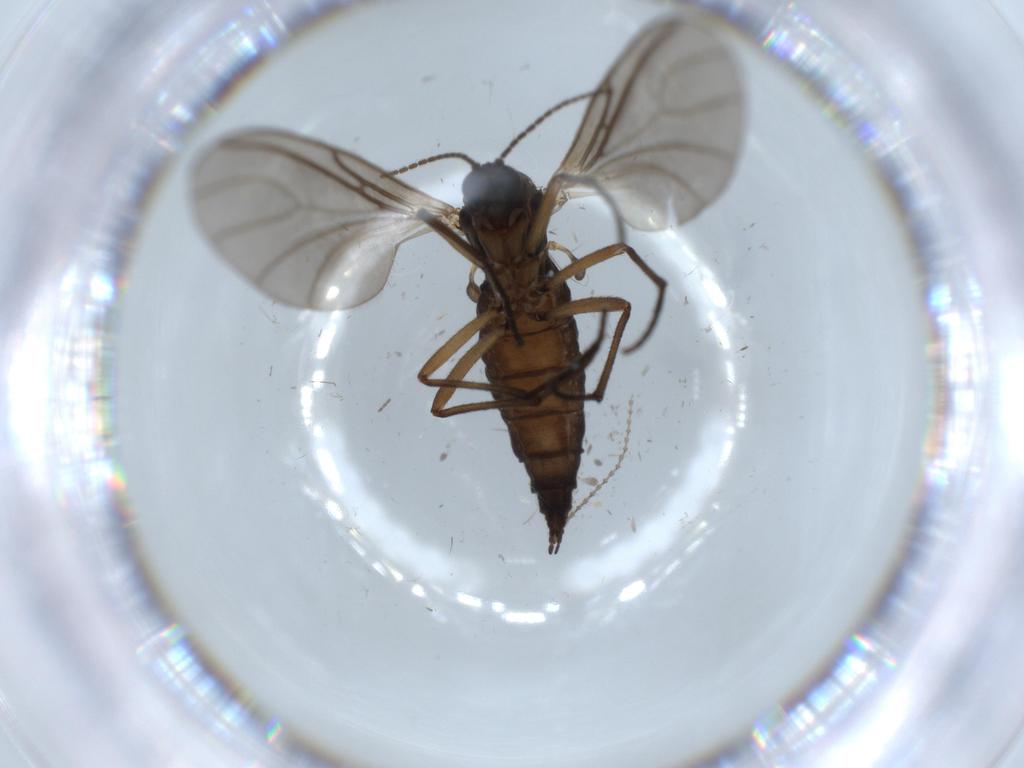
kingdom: Animalia
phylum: Arthropoda
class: Insecta
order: Diptera
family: Sciaridae
